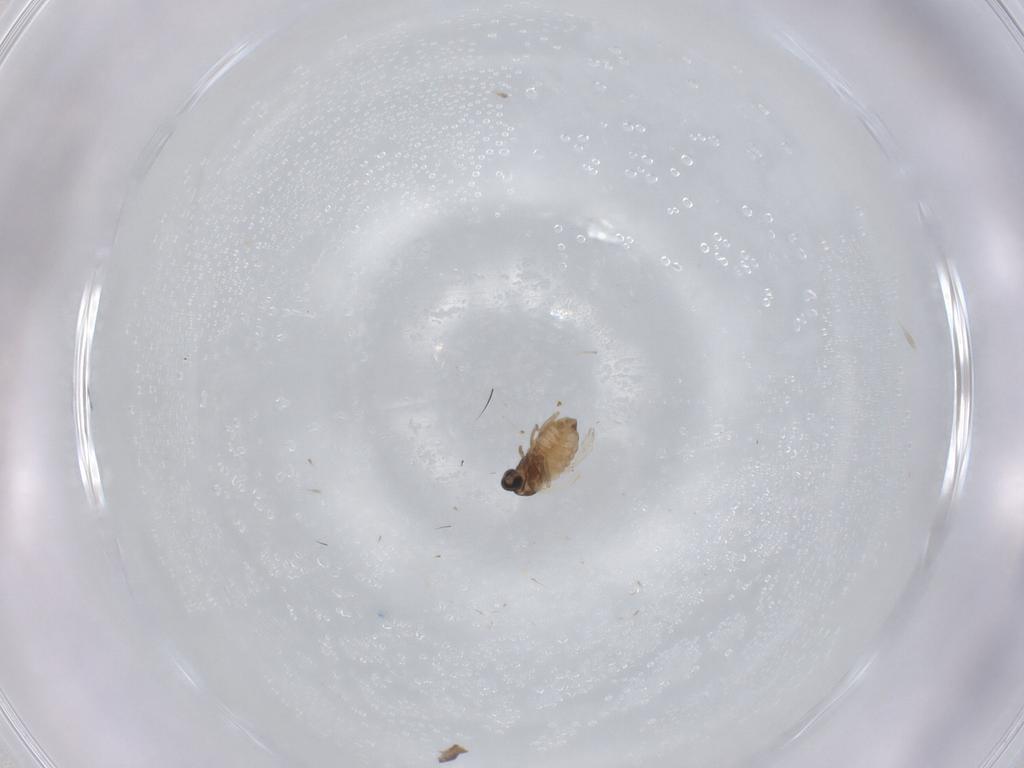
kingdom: Animalia
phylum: Arthropoda
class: Insecta
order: Diptera
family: Cecidomyiidae
